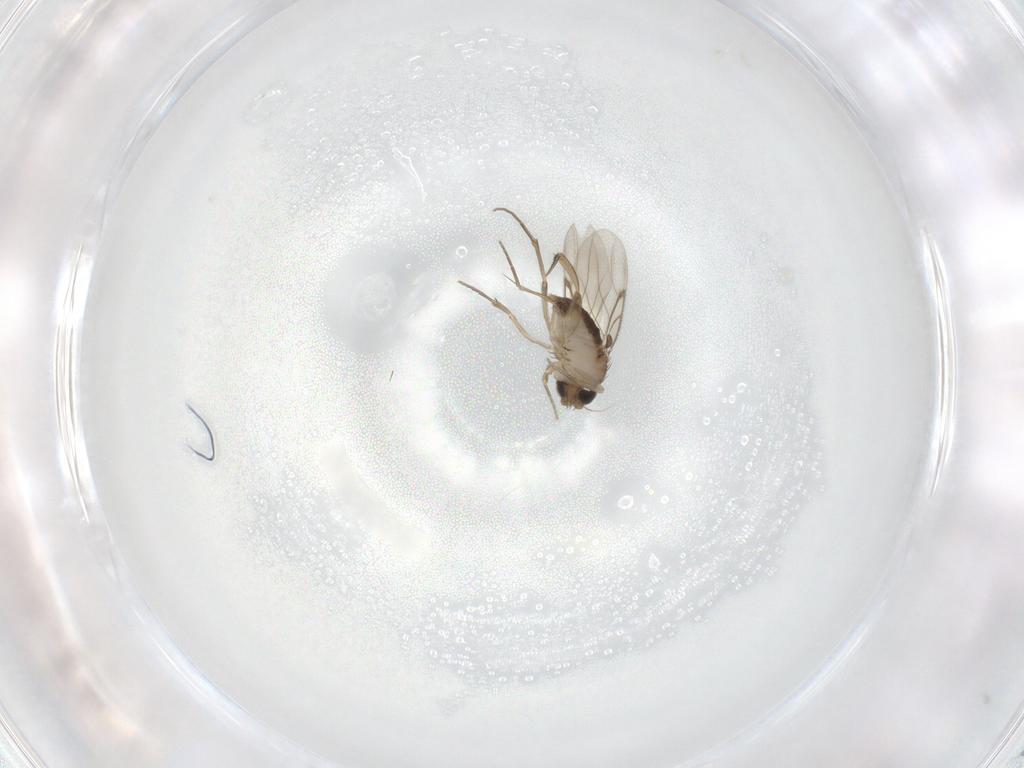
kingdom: Animalia
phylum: Arthropoda
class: Insecta
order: Diptera
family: Phoridae
